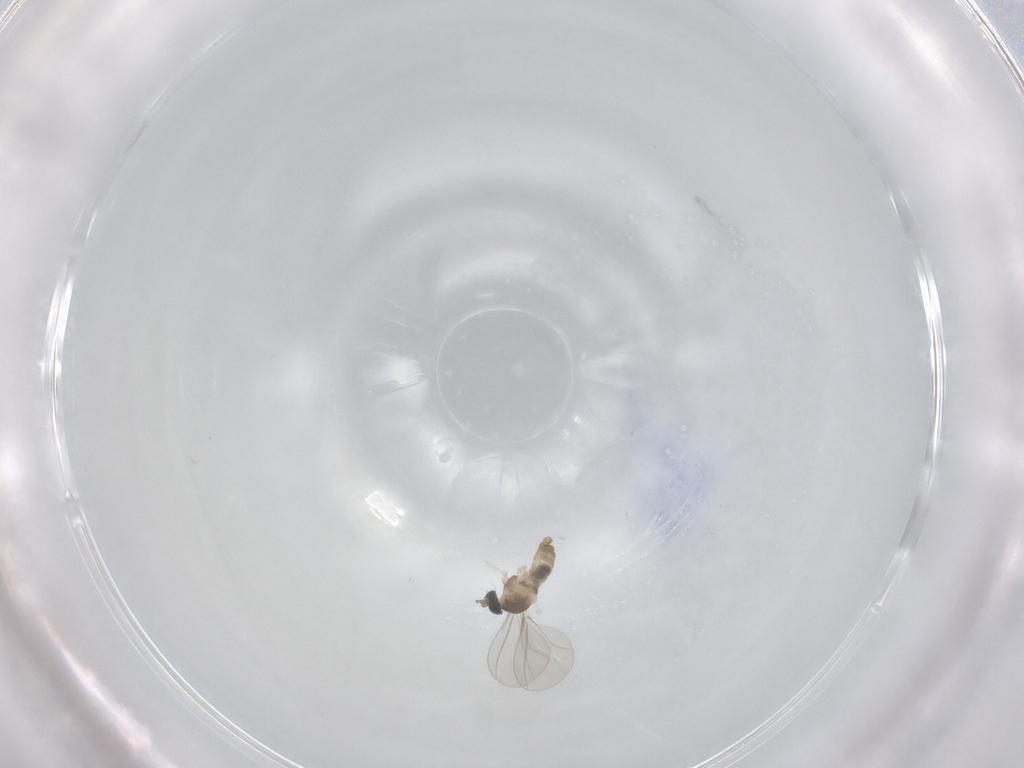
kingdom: Animalia
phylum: Arthropoda
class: Insecta
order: Diptera
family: Cecidomyiidae
